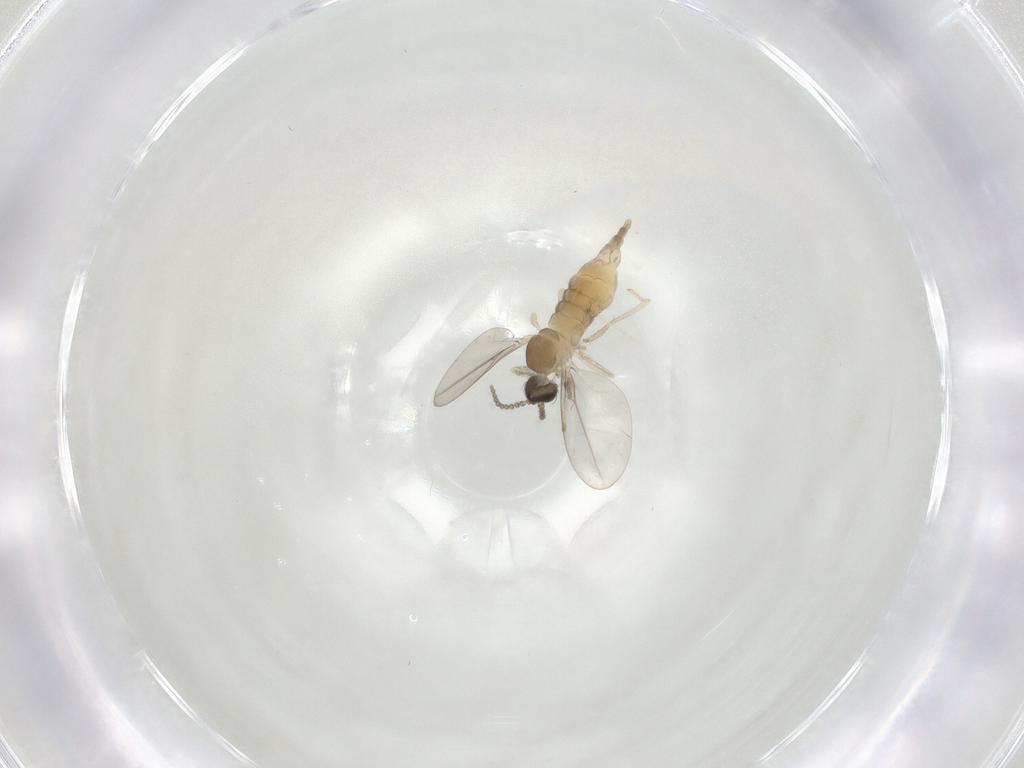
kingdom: Animalia
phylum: Arthropoda
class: Insecta
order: Diptera
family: Cecidomyiidae
